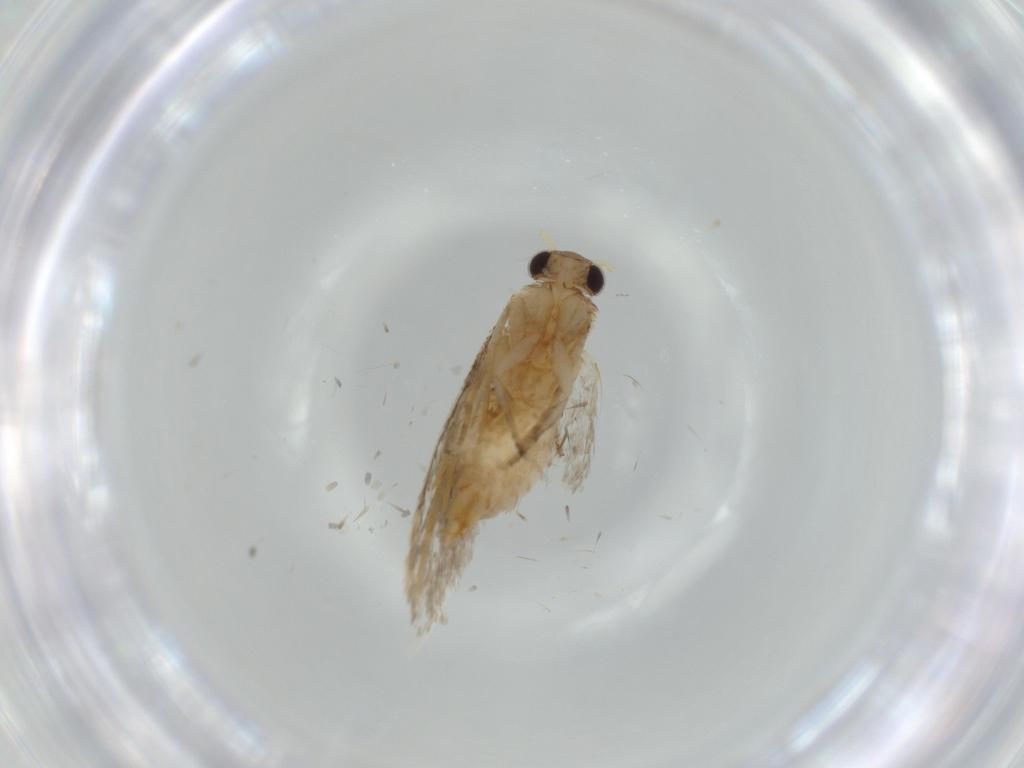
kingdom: Animalia
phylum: Arthropoda
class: Insecta
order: Lepidoptera
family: Tineidae
